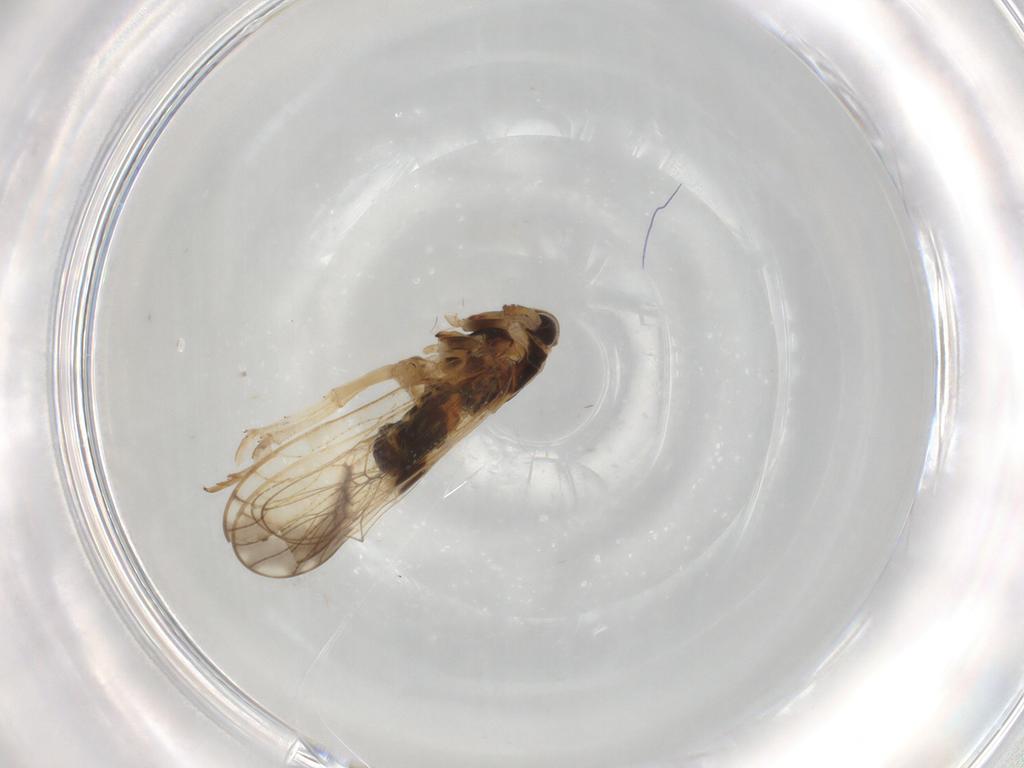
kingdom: Animalia
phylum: Arthropoda
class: Insecta
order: Hemiptera
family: Delphacidae
